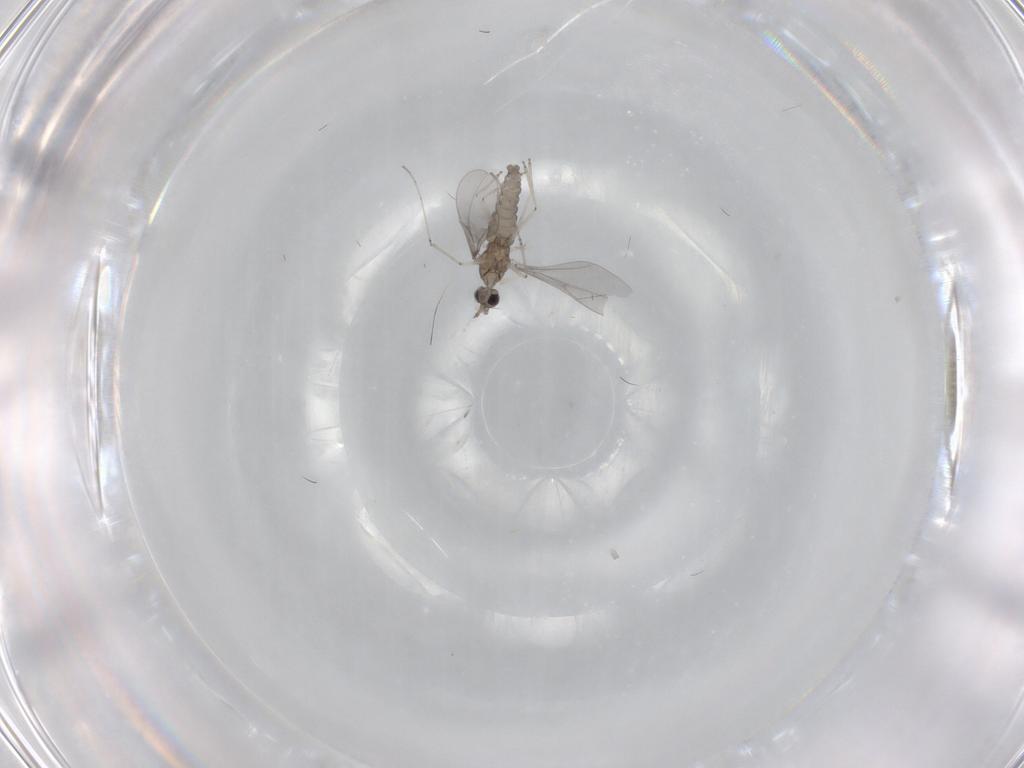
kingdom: Animalia
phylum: Arthropoda
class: Insecta
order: Diptera
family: Cecidomyiidae
